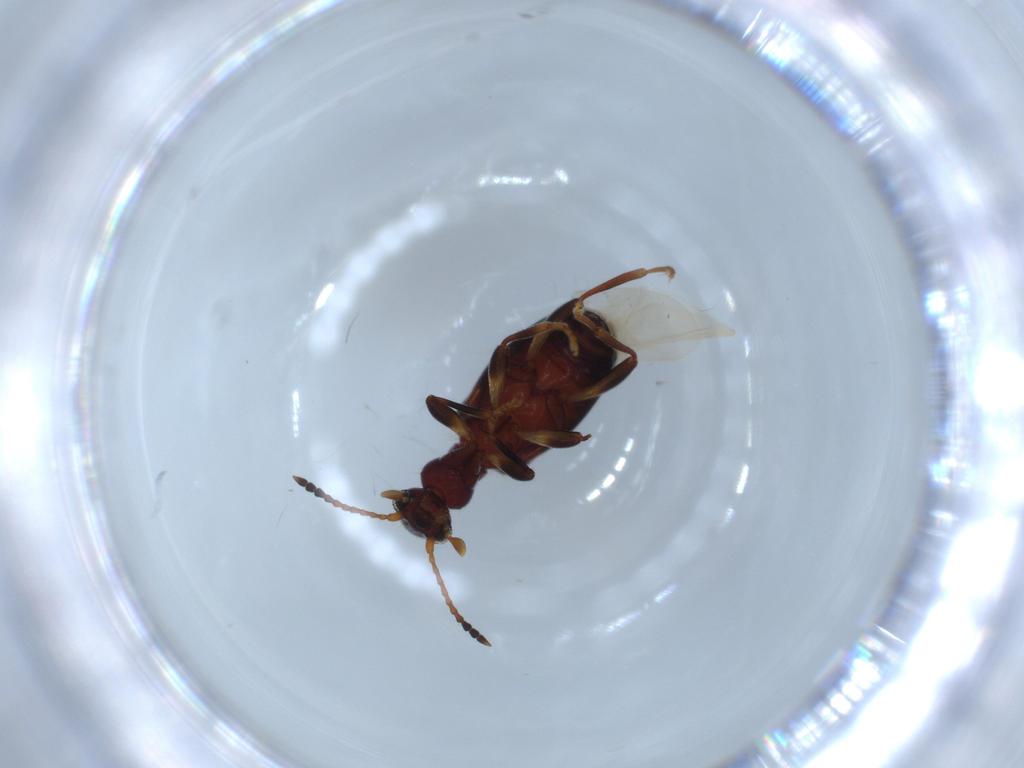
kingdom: Animalia
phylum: Arthropoda
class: Insecta
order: Coleoptera
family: Anthicidae
